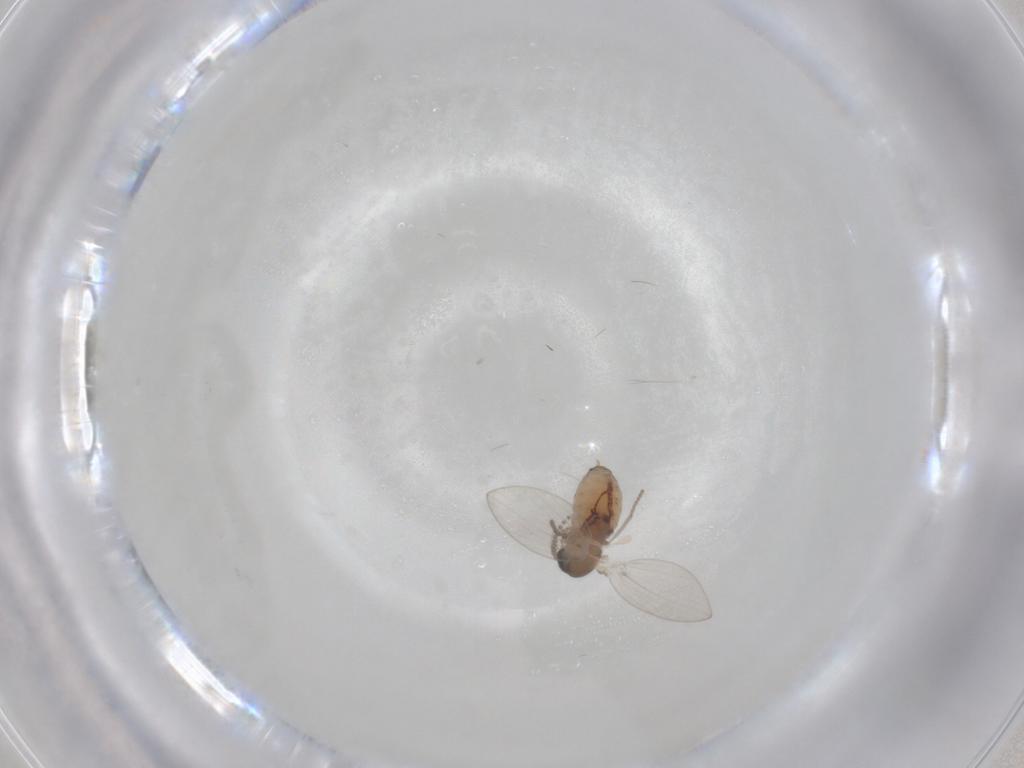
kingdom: Animalia
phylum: Arthropoda
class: Insecta
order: Diptera
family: Psychodidae
